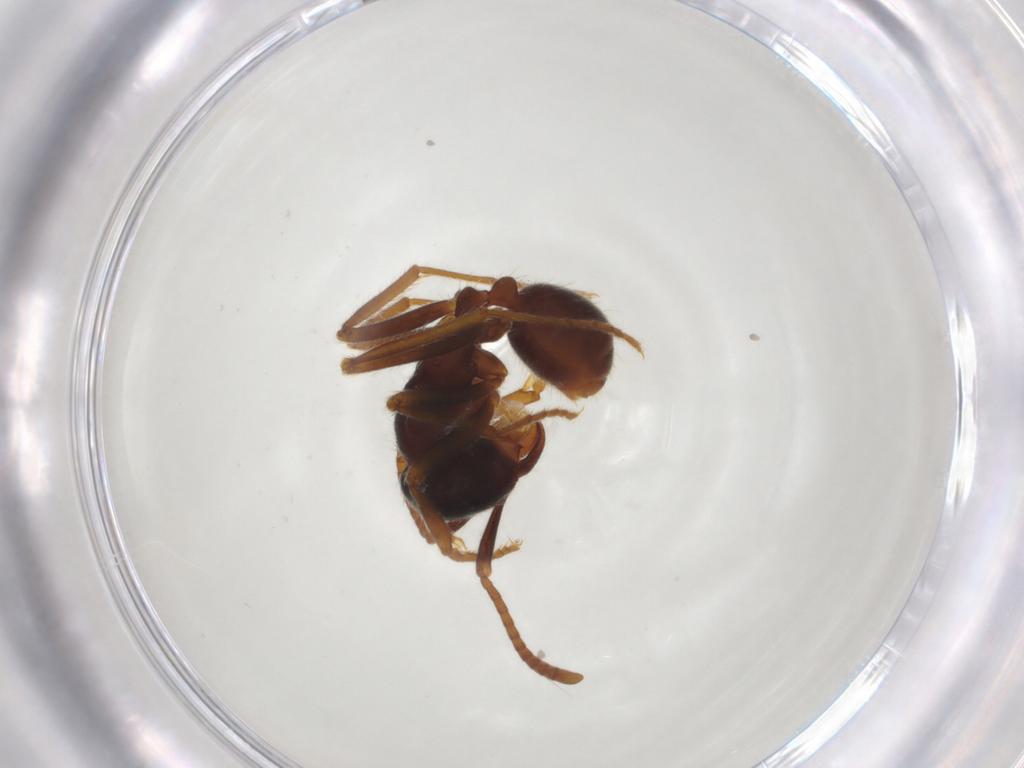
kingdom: Animalia
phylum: Arthropoda
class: Insecta
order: Hymenoptera
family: Formicidae
